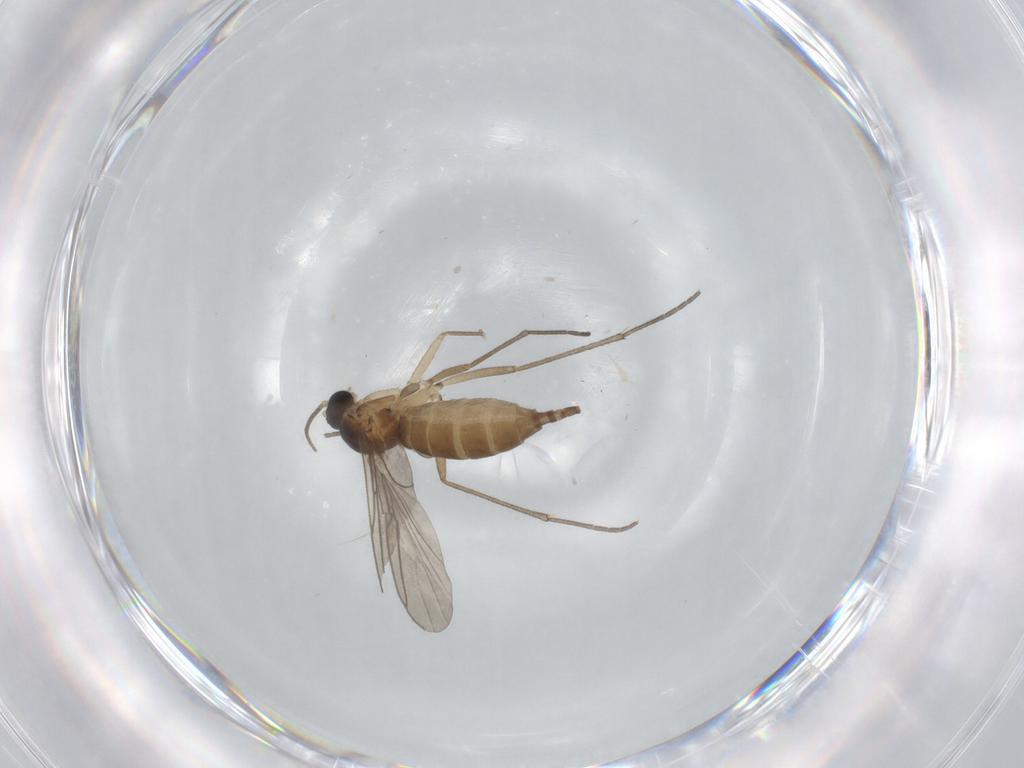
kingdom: Animalia
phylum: Arthropoda
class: Insecta
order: Diptera
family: Sciaridae
